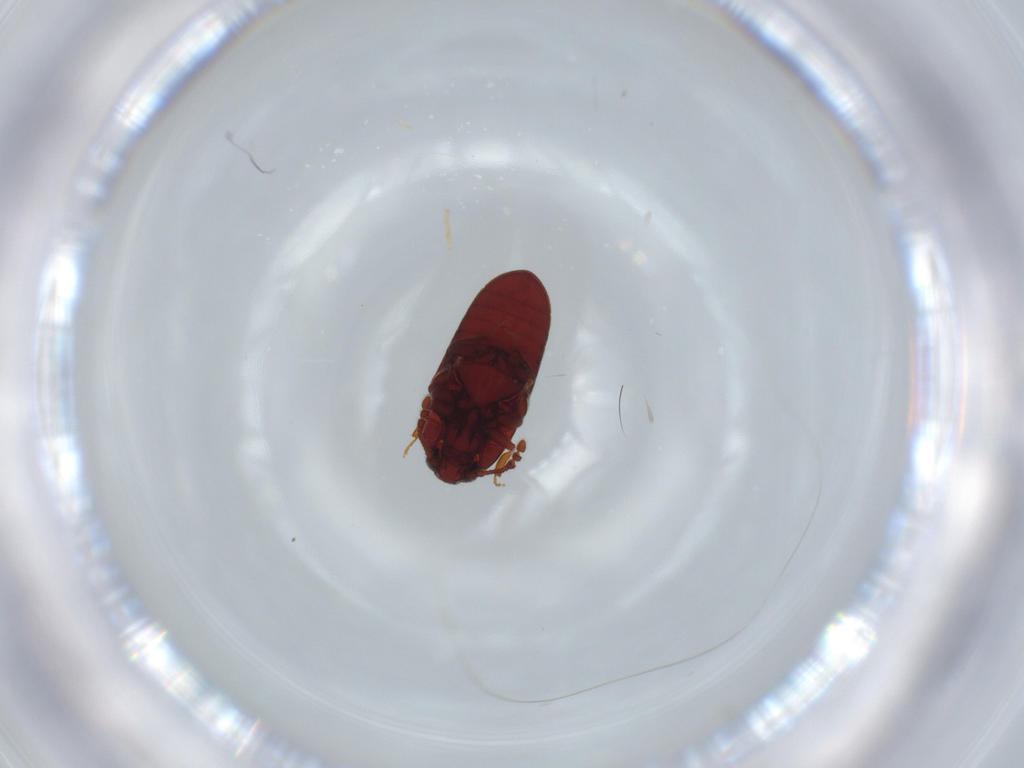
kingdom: Animalia
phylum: Arthropoda
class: Insecta
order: Coleoptera
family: Throscidae
